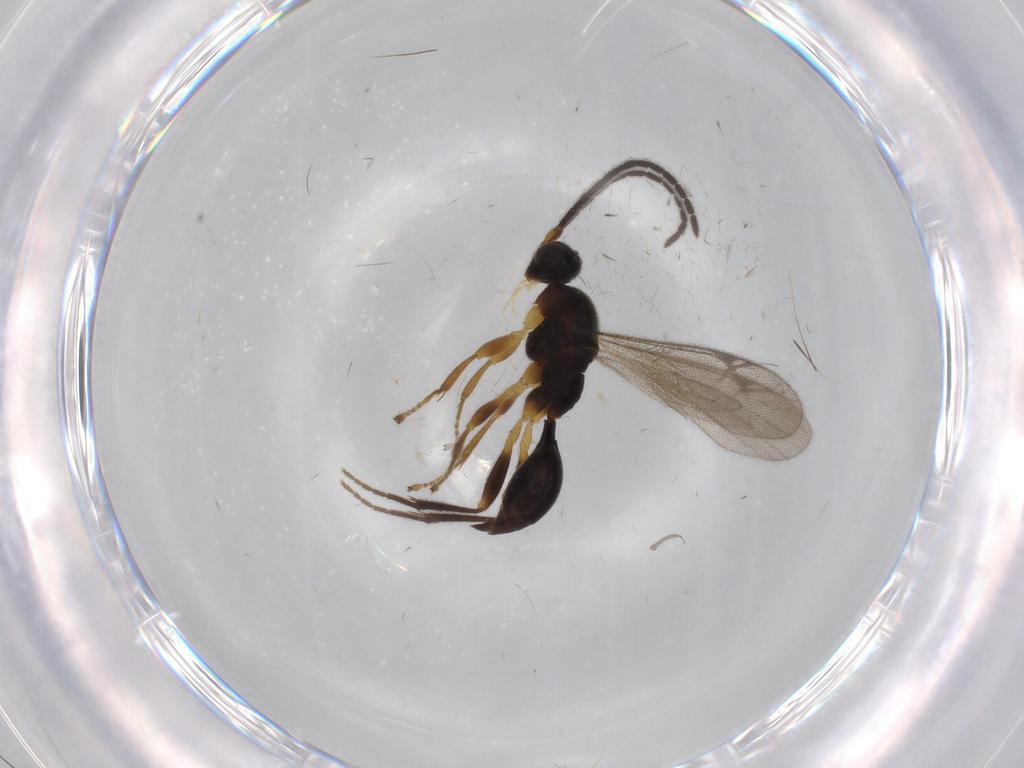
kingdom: Animalia
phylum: Arthropoda
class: Insecta
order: Hymenoptera
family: Proctotrupidae
